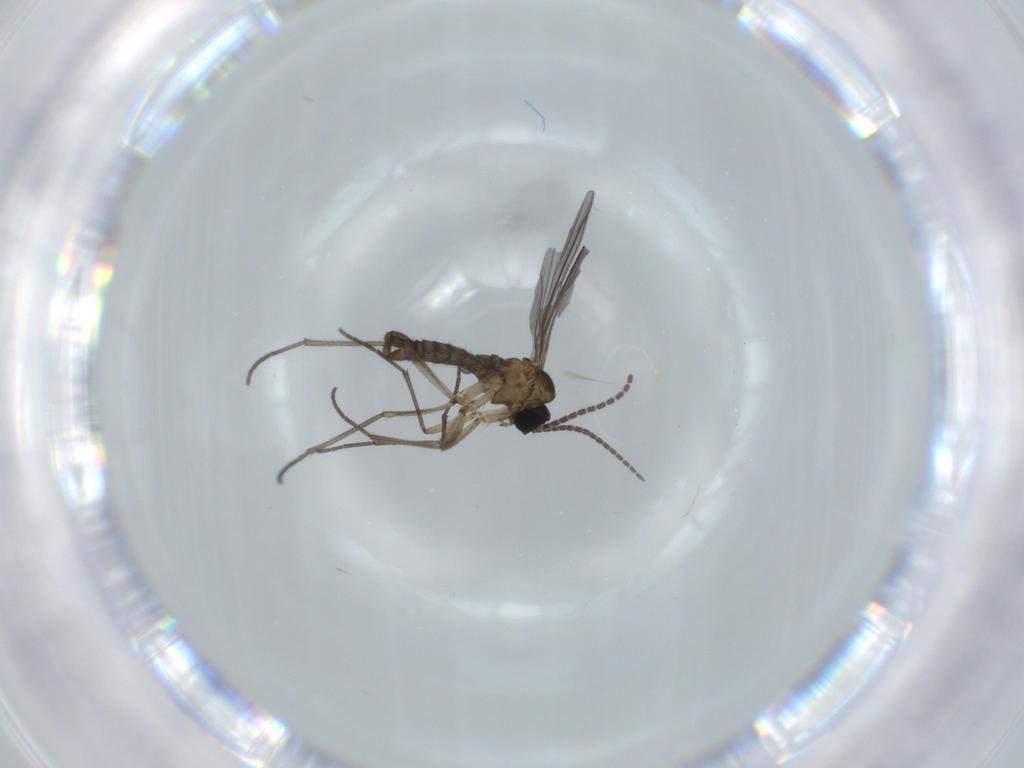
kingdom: Animalia
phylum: Arthropoda
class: Insecta
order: Diptera
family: Sciaridae
